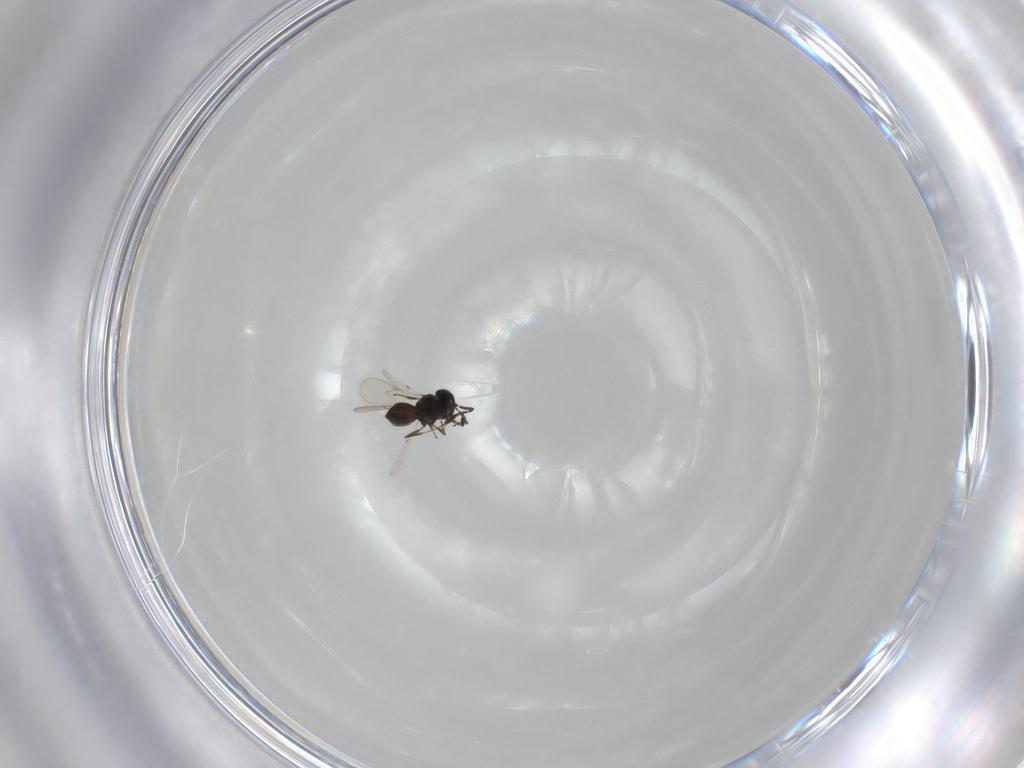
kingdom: Animalia
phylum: Arthropoda
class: Insecta
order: Hymenoptera
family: Scelionidae
